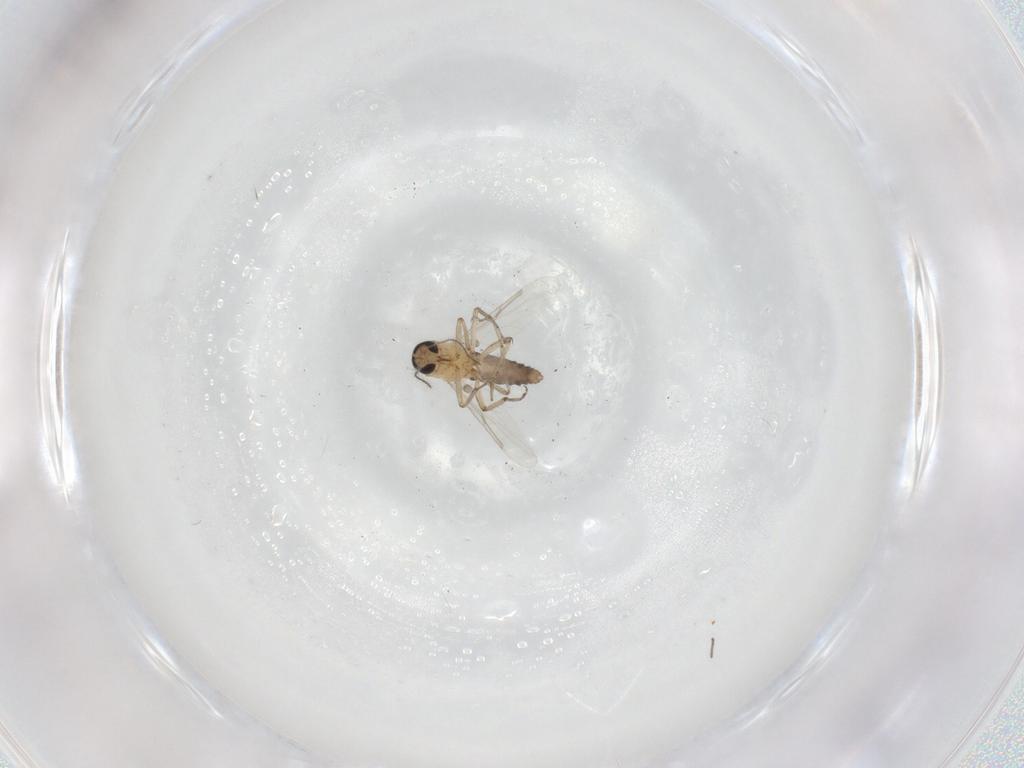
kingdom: Animalia
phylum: Arthropoda
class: Insecta
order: Diptera
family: Ceratopogonidae
